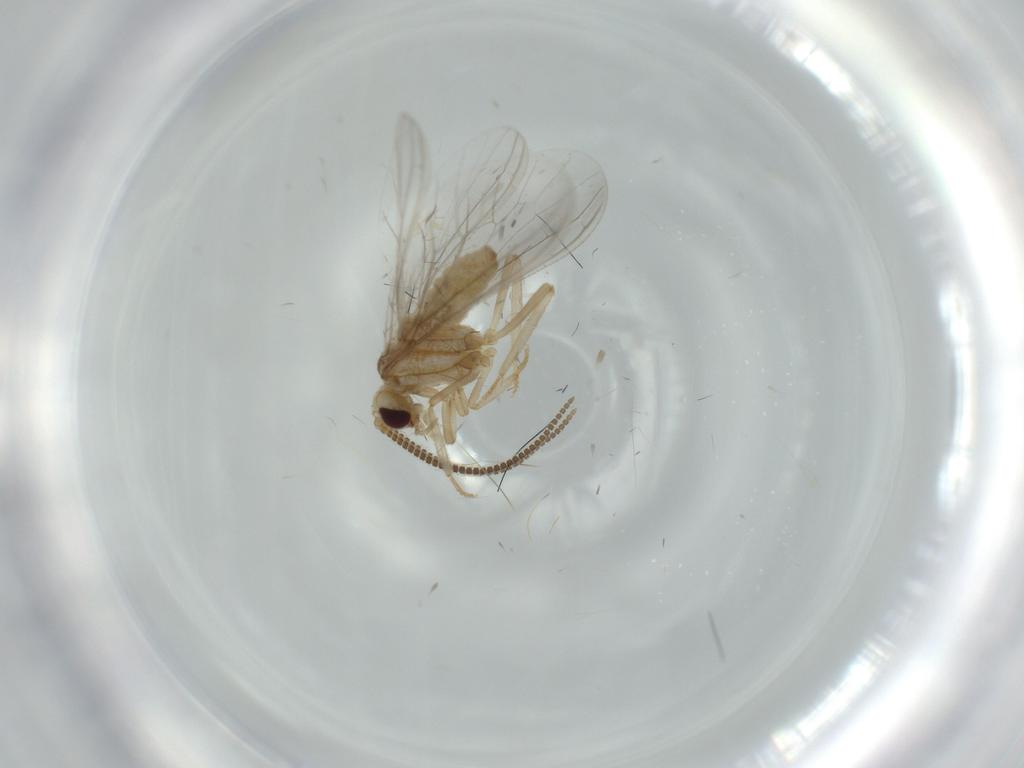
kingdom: Animalia
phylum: Arthropoda
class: Insecta
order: Neuroptera
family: Coniopterygidae
